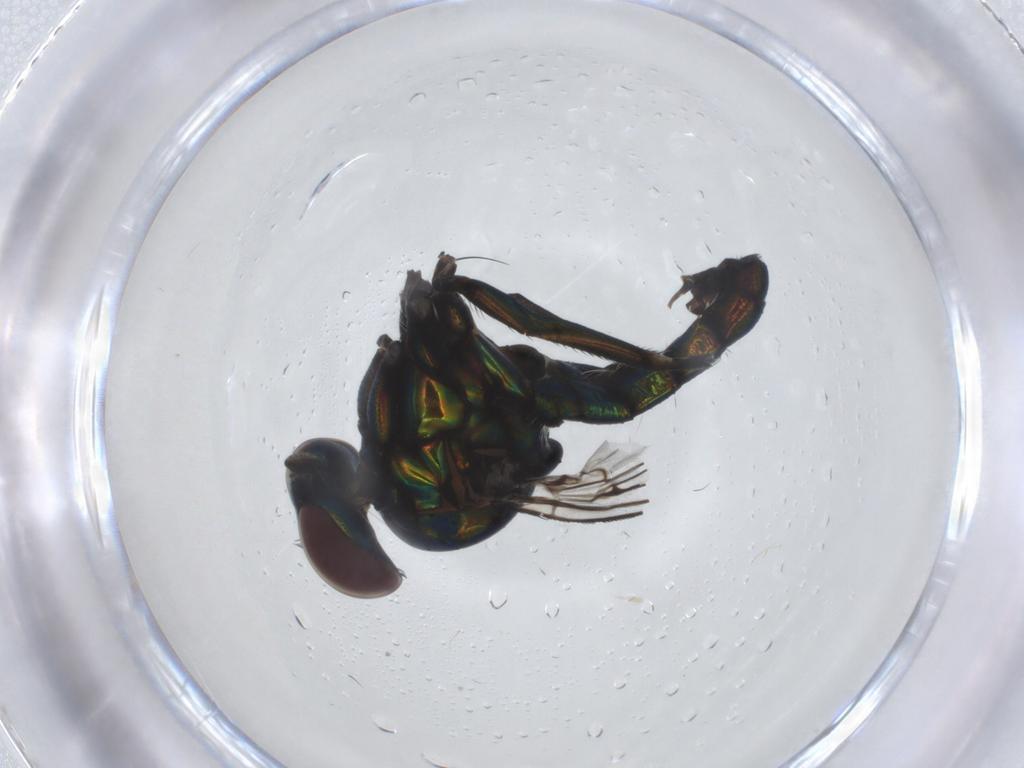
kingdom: Animalia
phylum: Arthropoda
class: Insecta
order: Diptera
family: Dolichopodidae
